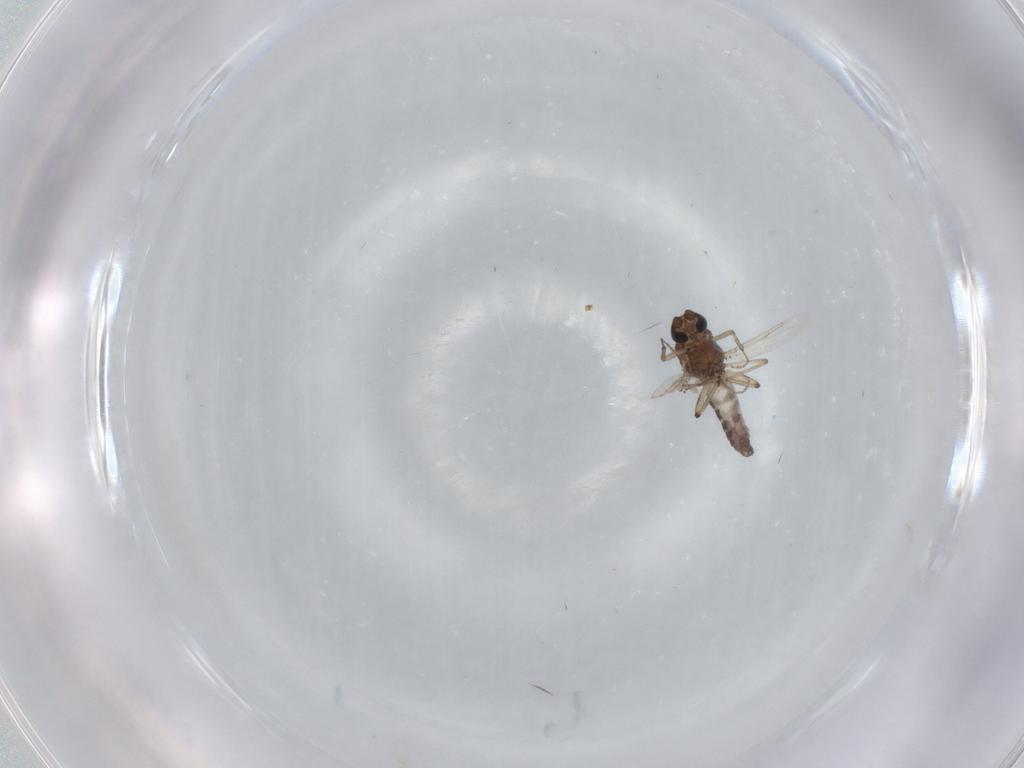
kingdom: Animalia
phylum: Arthropoda
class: Insecta
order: Diptera
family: Ceratopogonidae
